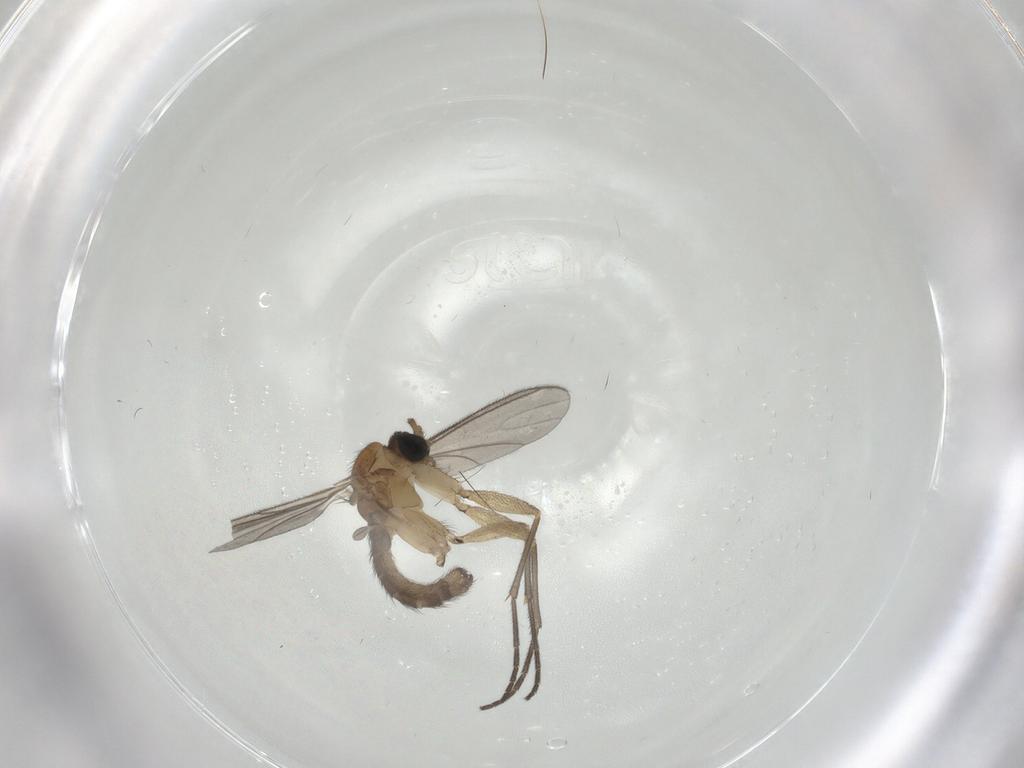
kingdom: Animalia
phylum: Arthropoda
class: Insecta
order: Diptera
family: Sciaridae
